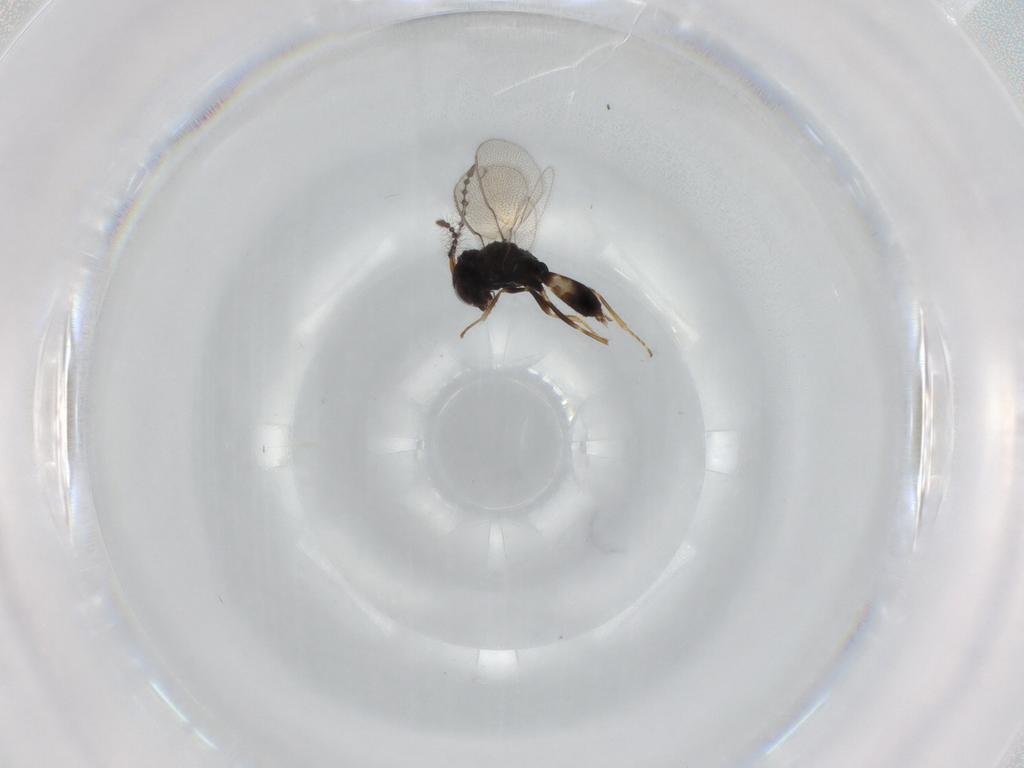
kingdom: Animalia
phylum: Arthropoda
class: Insecta
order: Hymenoptera
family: Pteromalidae
